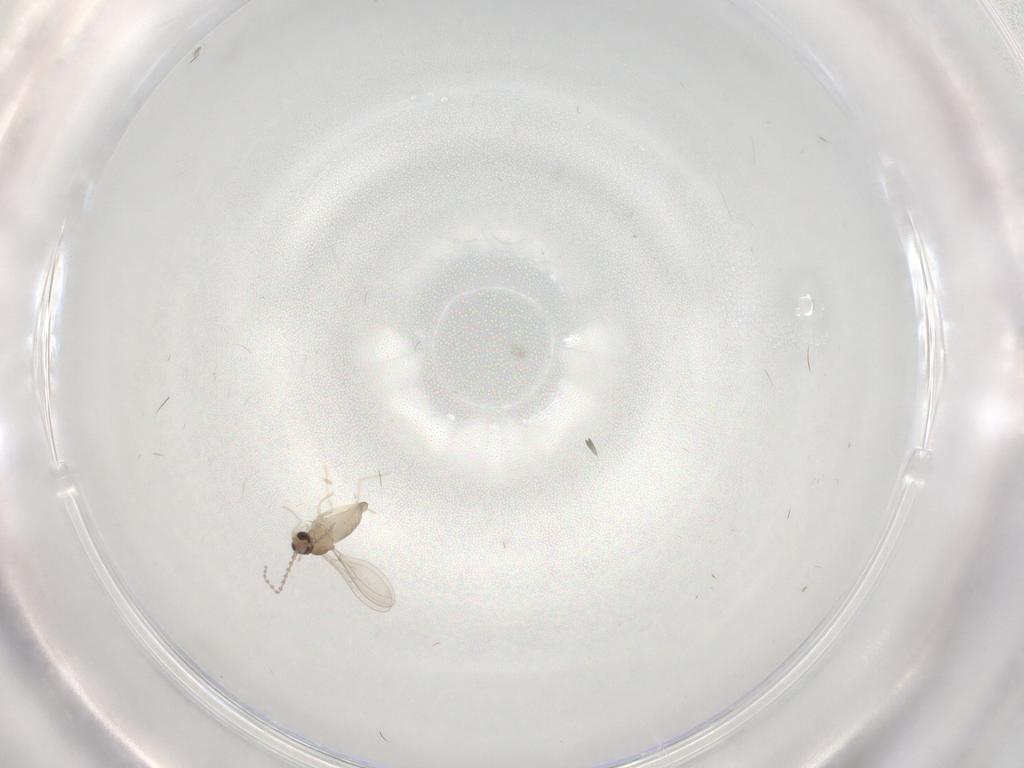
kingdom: Animalia
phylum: Arthropoda
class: Insecta
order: Diptera
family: Cecidomyiidae
